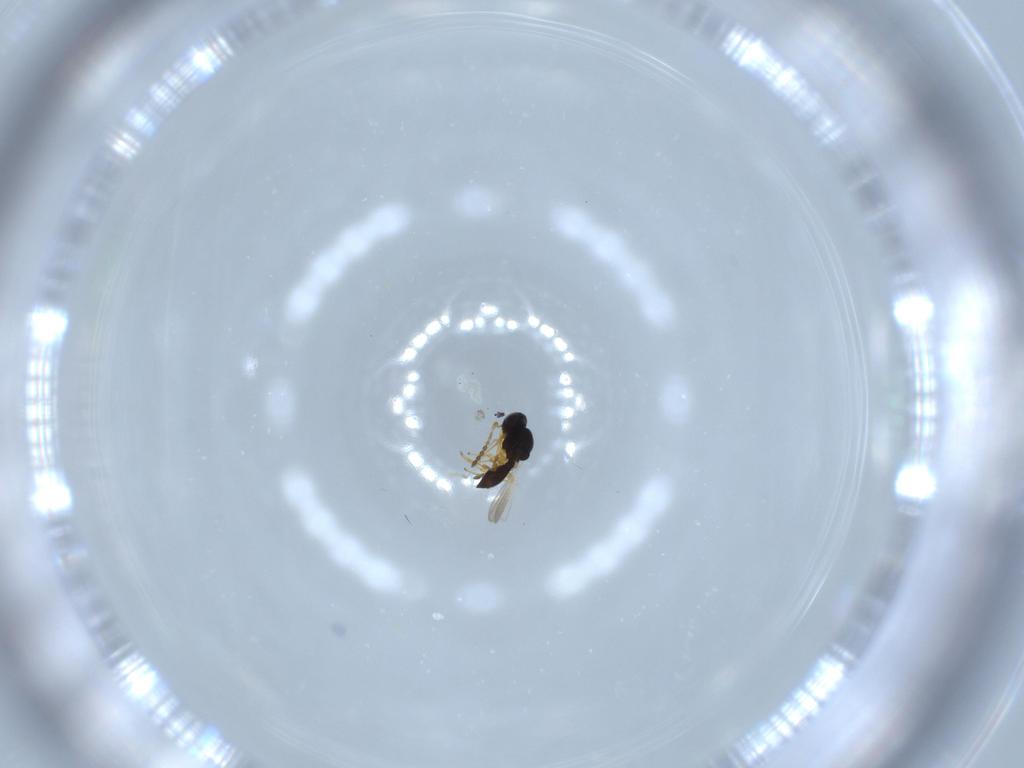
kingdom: Animalia
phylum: Arthropoda
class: Insecta
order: Hymenoptera
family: Platygastridae
